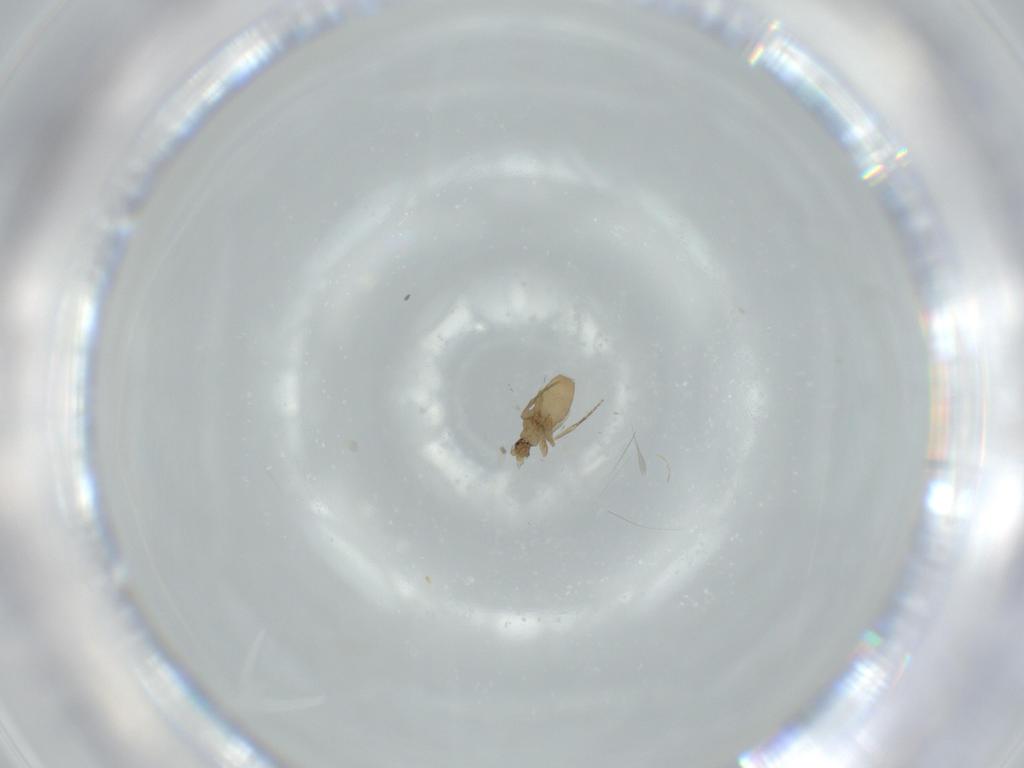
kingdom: Animalia
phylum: Arthropoda
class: Insecta
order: Diptera
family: Phoridae
